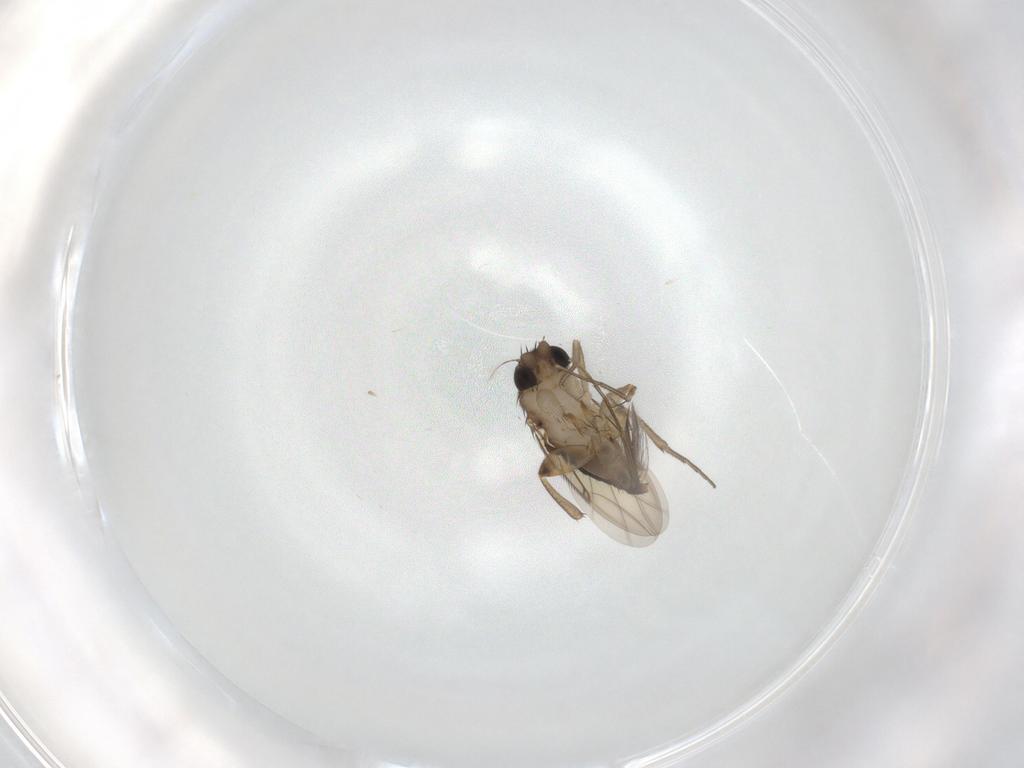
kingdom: Animalia
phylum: Arthropoda
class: Insecta
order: Diptera
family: Phoridae
